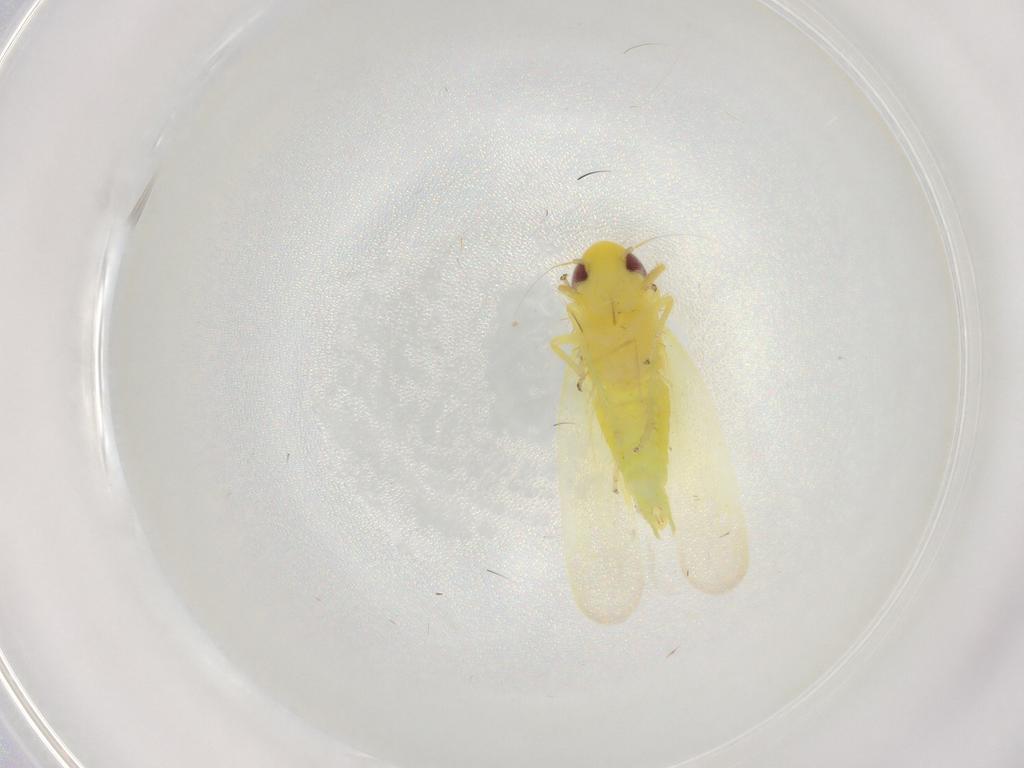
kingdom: Animalia
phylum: Arthropoda
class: Insecta
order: Hemiptera
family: Cicadellidae
